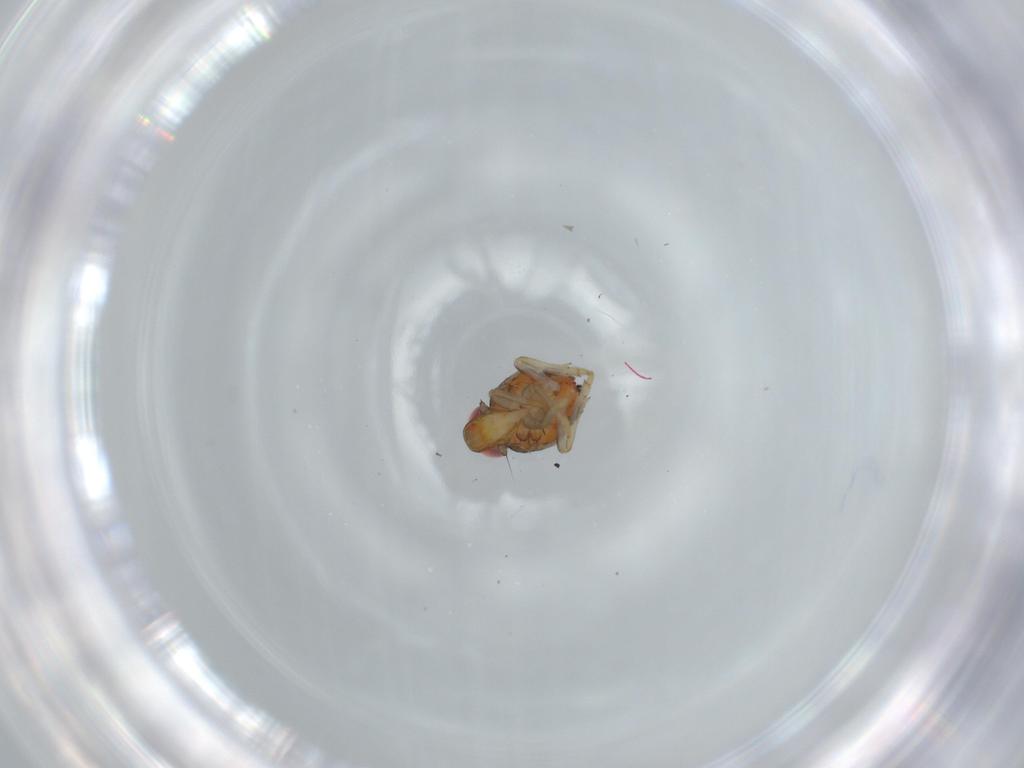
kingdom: Animalia
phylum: Arthropoda
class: Insecta
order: Hemiptera
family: Issidae
